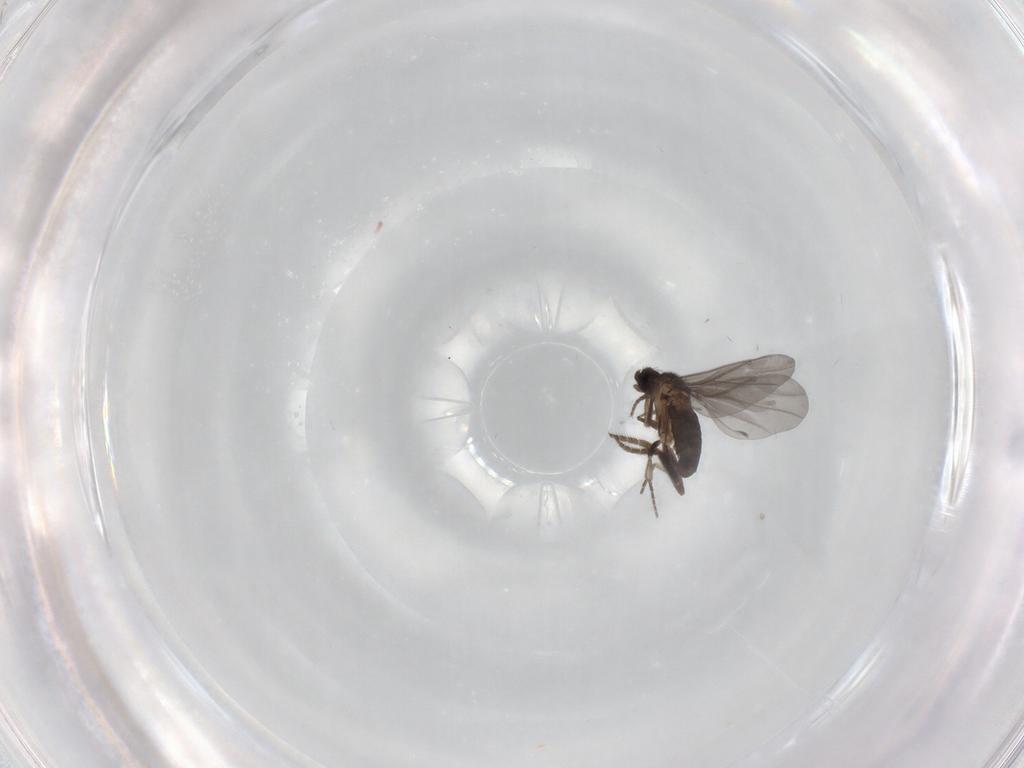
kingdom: Animalia
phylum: Arthropoda
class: Insecta
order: Diptera
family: Phoridae
